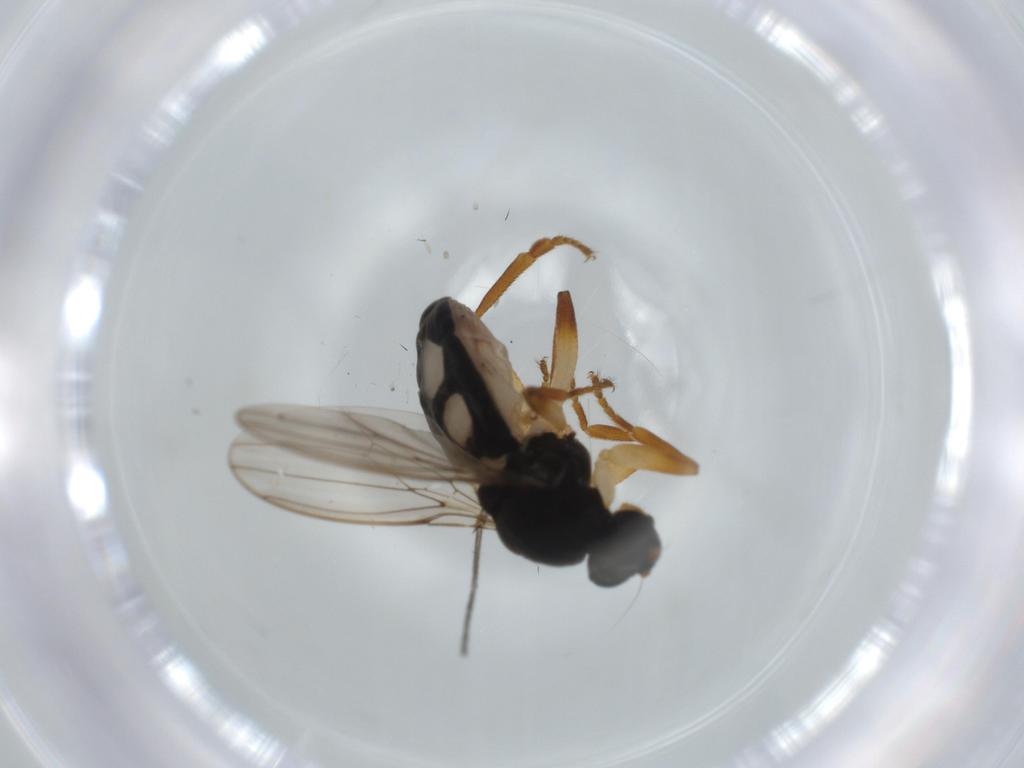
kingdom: Animalia
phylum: Arthropoda
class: Insecta
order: Diptera
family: Sphaeroceridae
